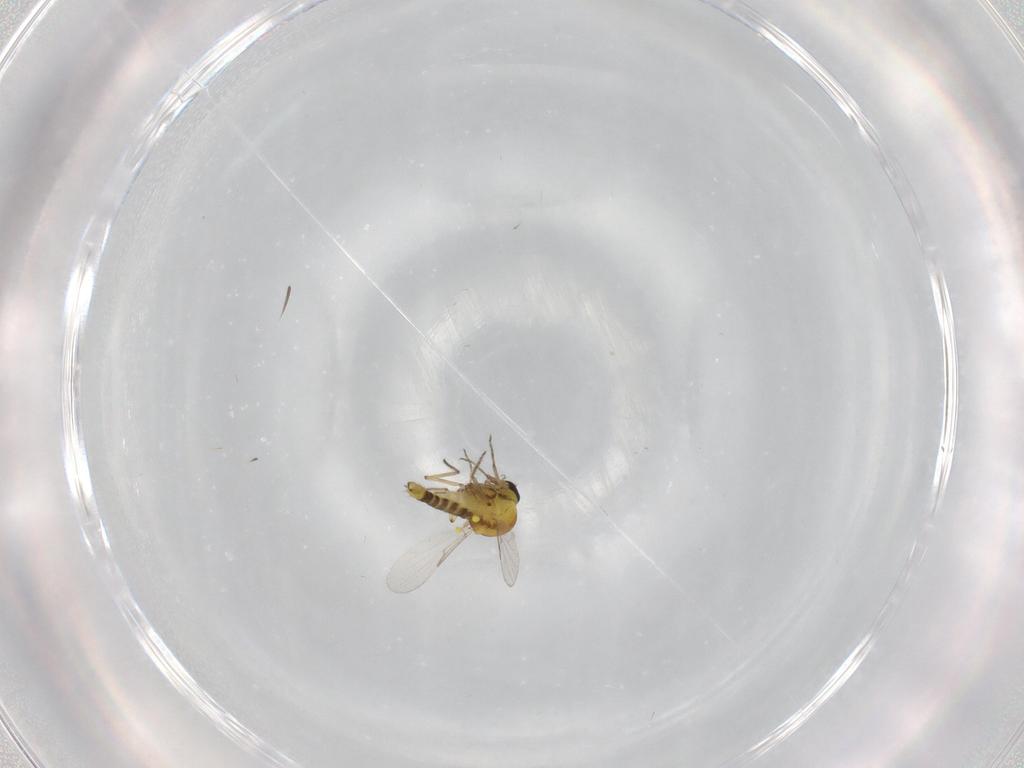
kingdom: Animalia
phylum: Arthropoda
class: Insecta
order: Diptera
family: Ceratopogonidae
